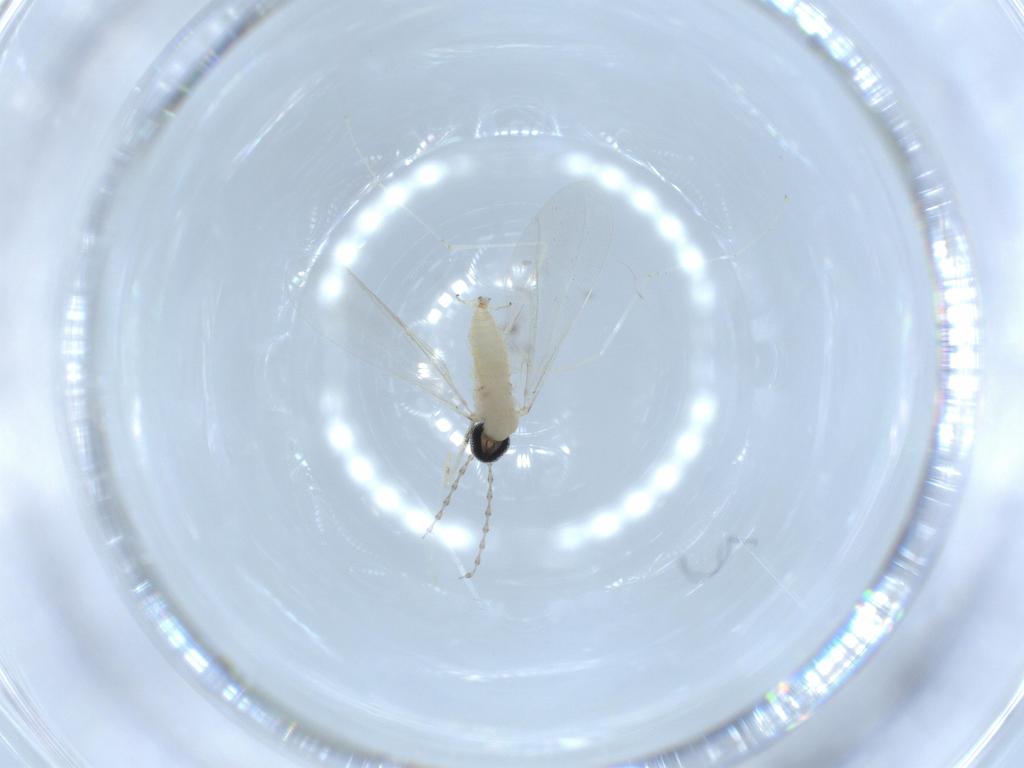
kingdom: Animalia
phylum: Arthropoda
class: Insecta
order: Diptera
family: Cecidomyiidae
